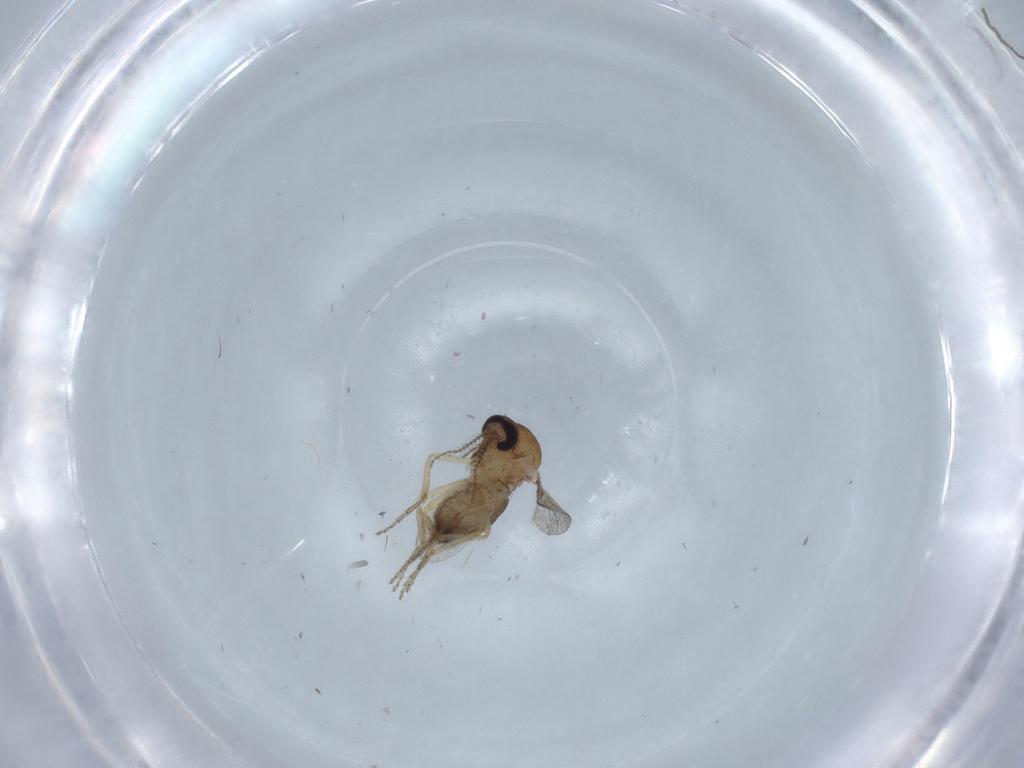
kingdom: Animalia
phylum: Arthropoda
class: Insecta
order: Diptera
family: Ceratopogonidae
